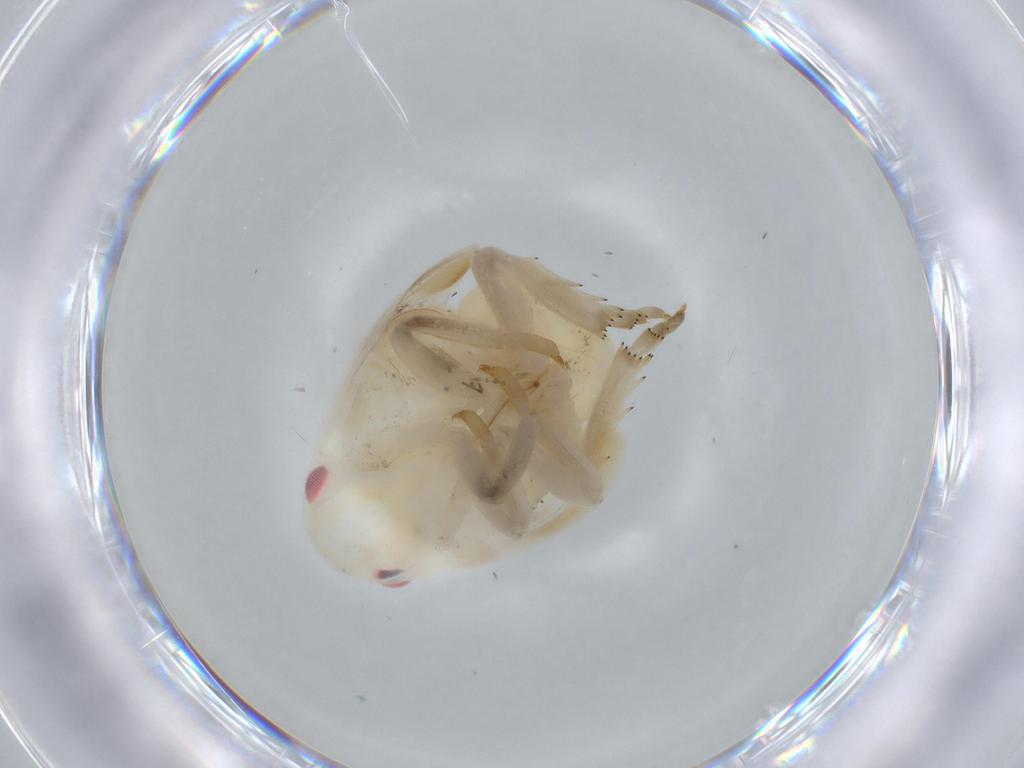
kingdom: Animalia
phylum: Arthropoda
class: Insecta
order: Hemiptera
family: Flatidae
